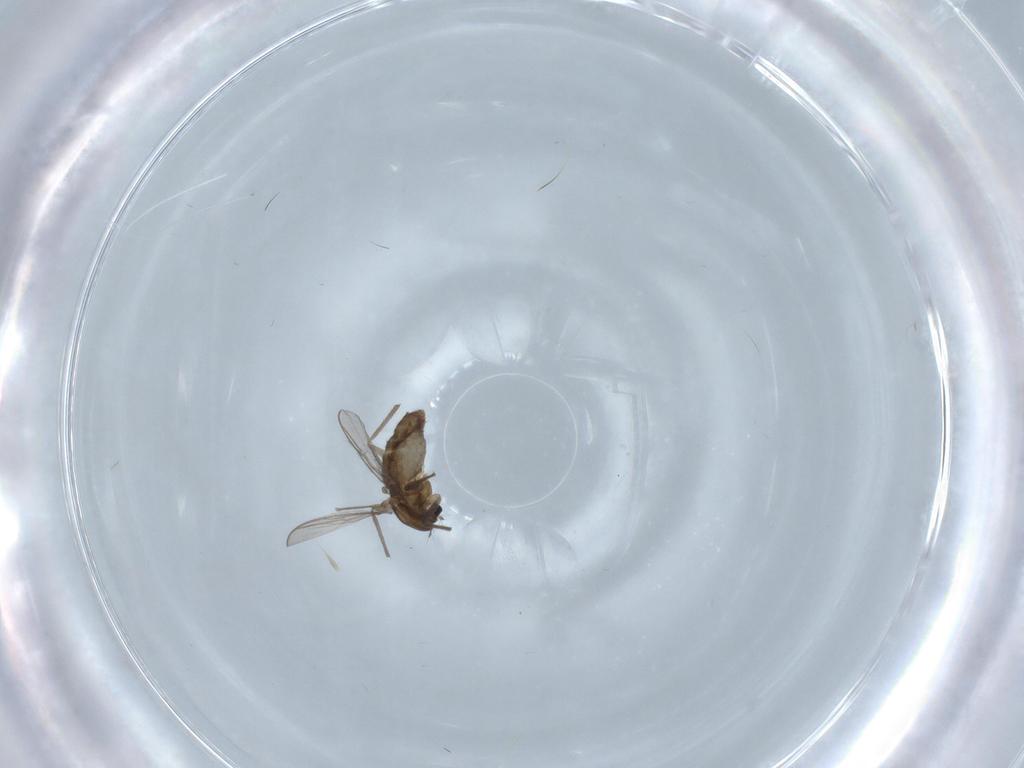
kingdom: Animalia
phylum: Arthropoda
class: Insecta
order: Diptera
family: Chironomidae
